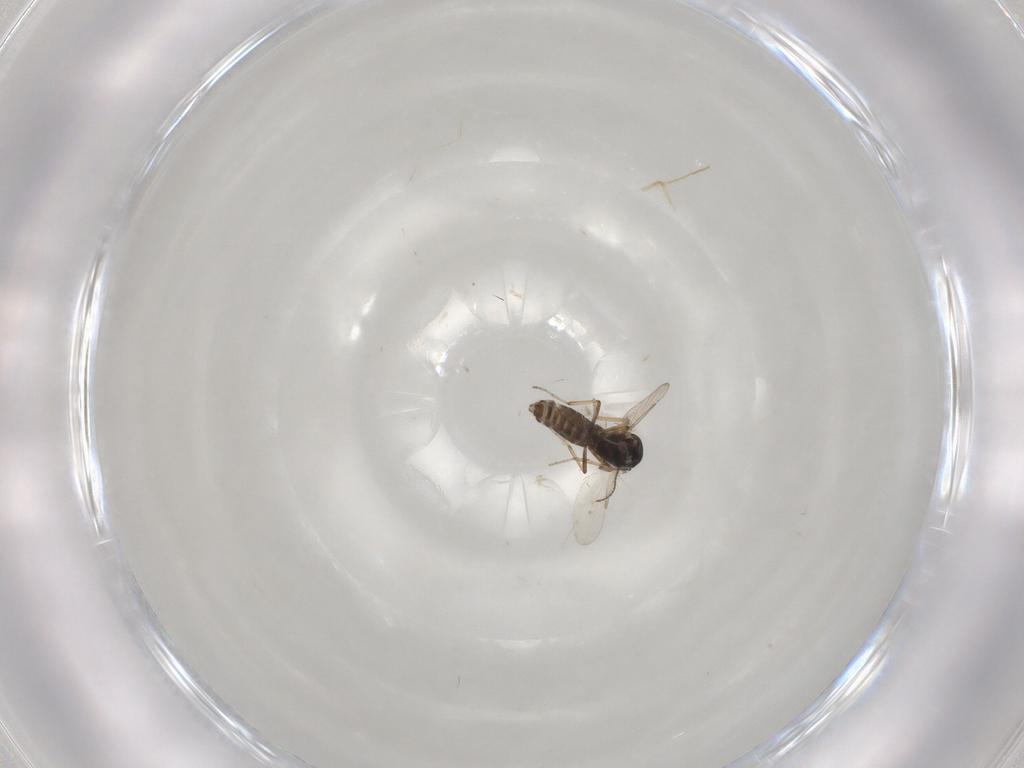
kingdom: Animalia
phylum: Arthropoda
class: Insecta
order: Diptera
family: Ceratopogonidae
